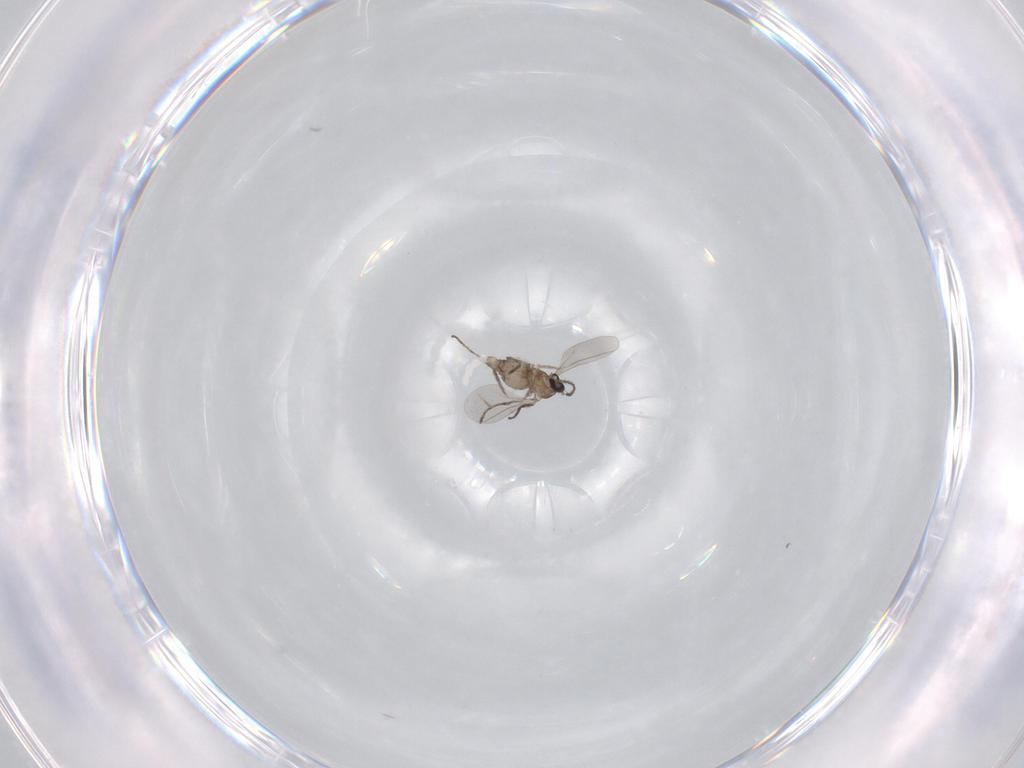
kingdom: Animalia
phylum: Arthropoda
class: Insecta
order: Diptera
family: Cecidomyiidae
